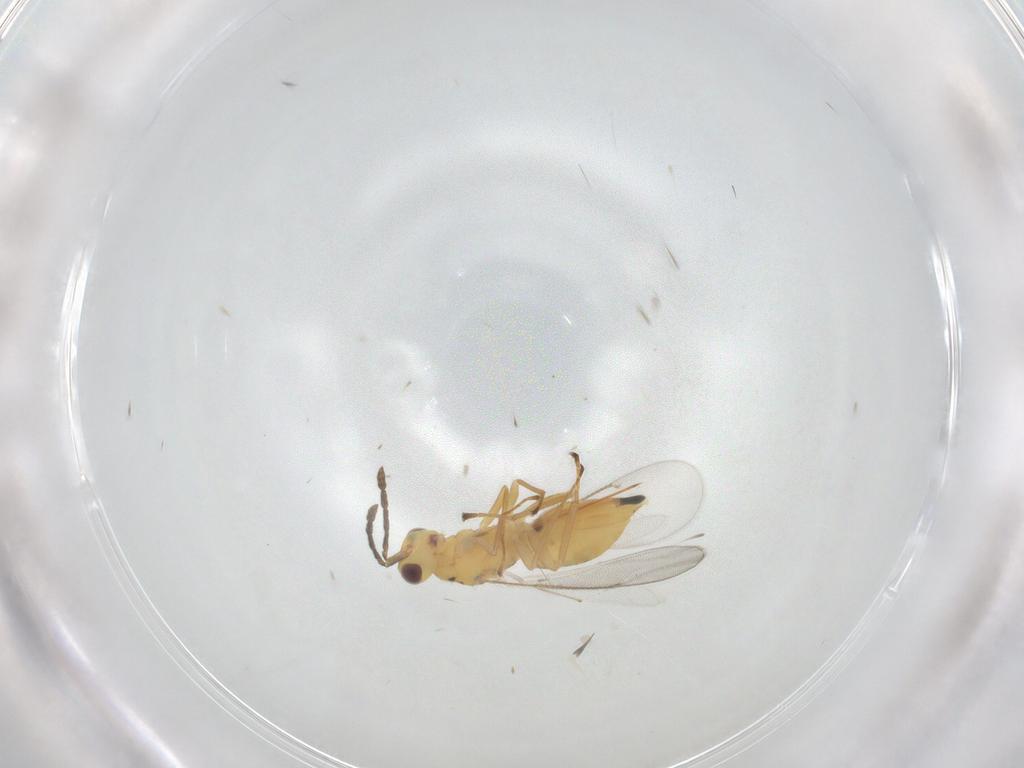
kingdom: Animalia
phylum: Arthropoda
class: Insecta
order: Hymenoptera
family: Eulophidae
